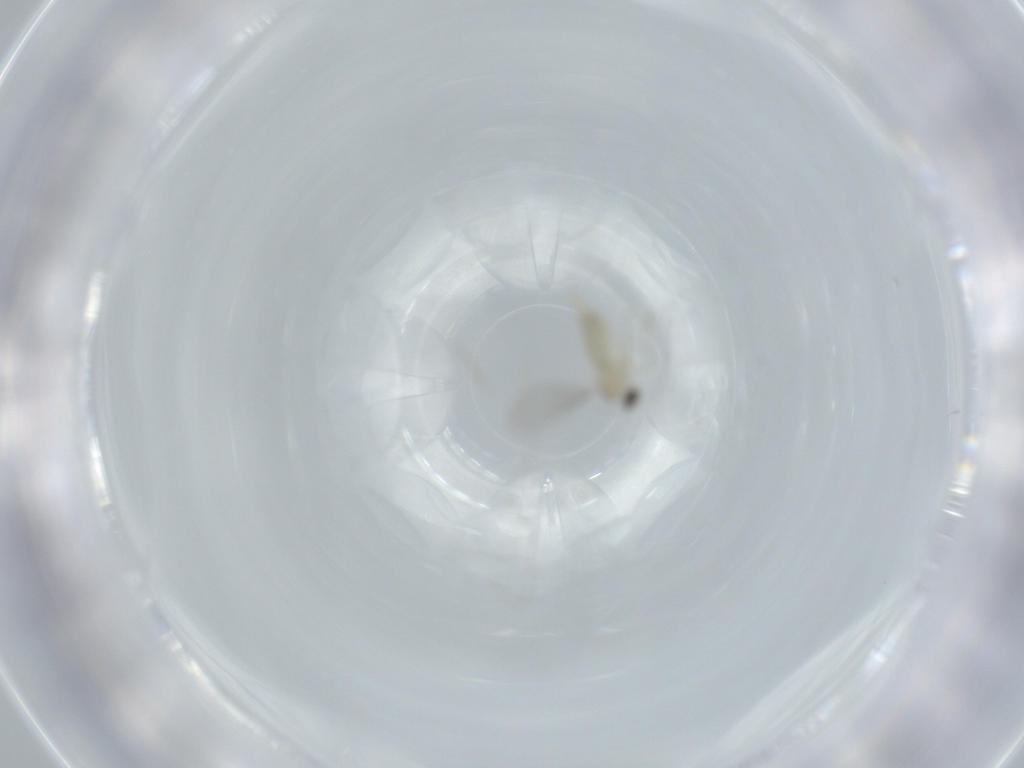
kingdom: Animalia
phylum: Arthropoda
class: Insecta
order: Diptera
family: Cecidomyiidae
